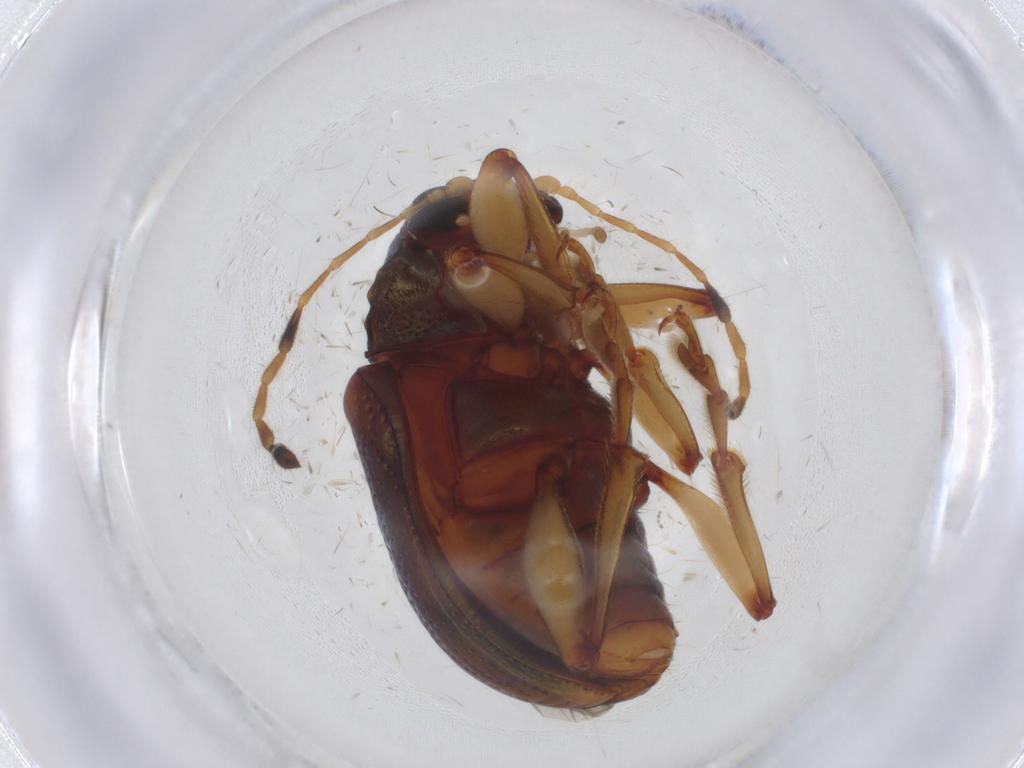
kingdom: Animalia
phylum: Arthropoda
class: Insecta
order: Coleoptera
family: Chrysomelidae
